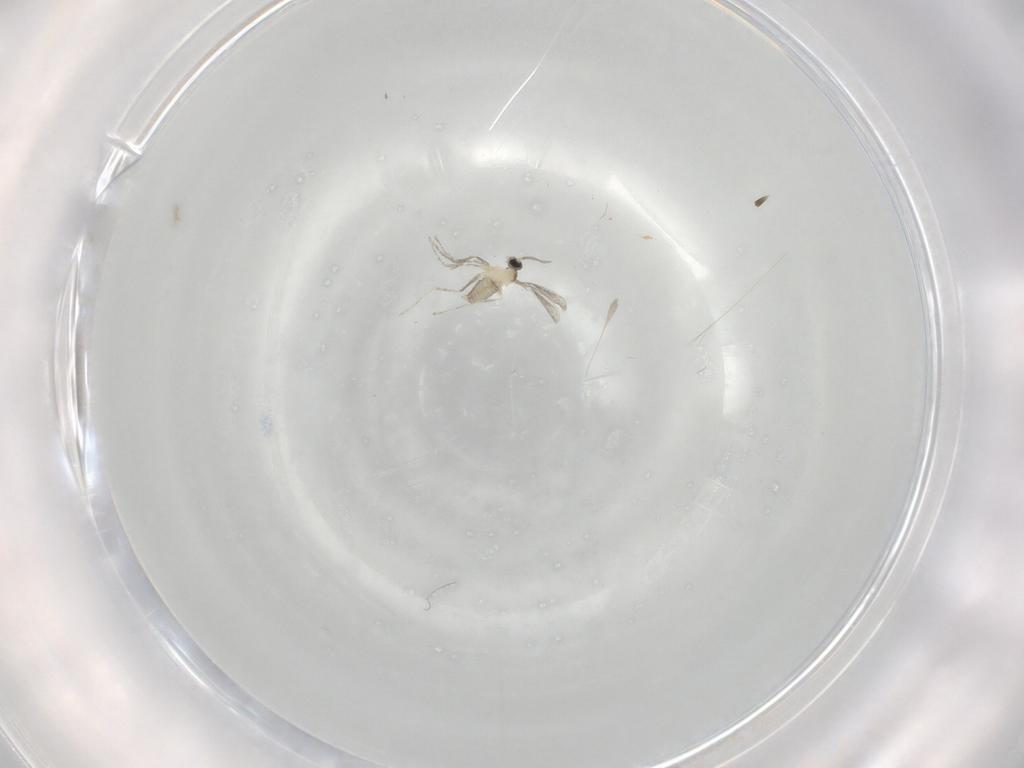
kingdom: Animalia
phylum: Arthropoda
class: Insecta
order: Diptera
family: Cecidomyiidae
